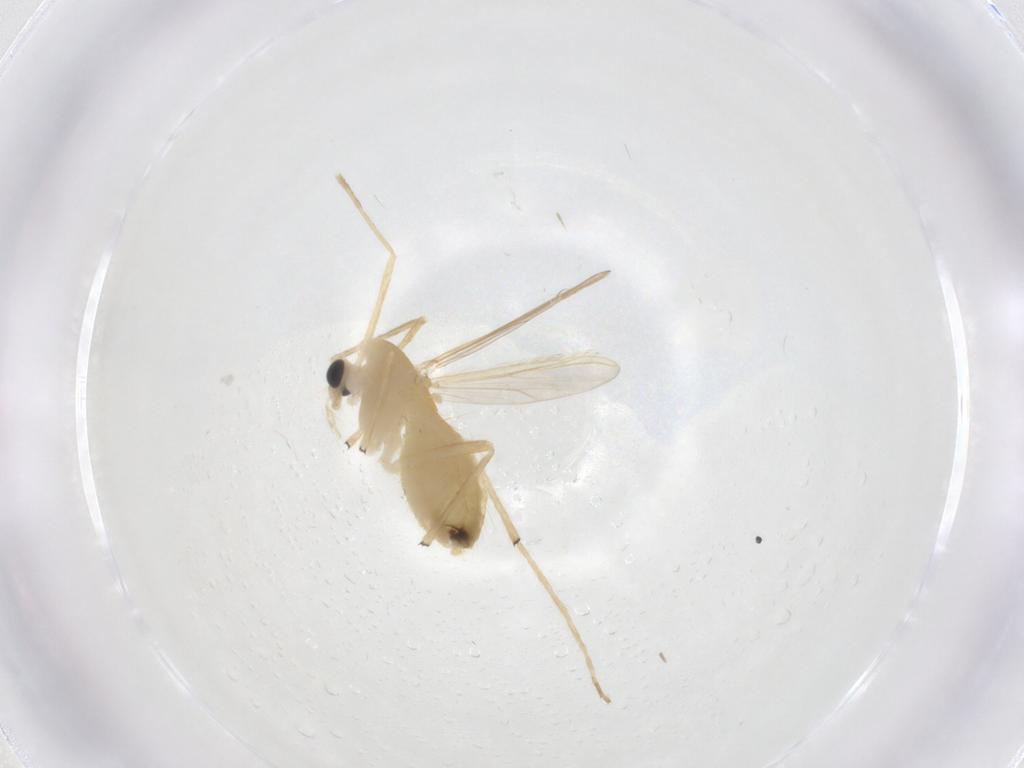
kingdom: Animalia
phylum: Arthropoda
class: Insecta
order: Diptera
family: Chironomidae
